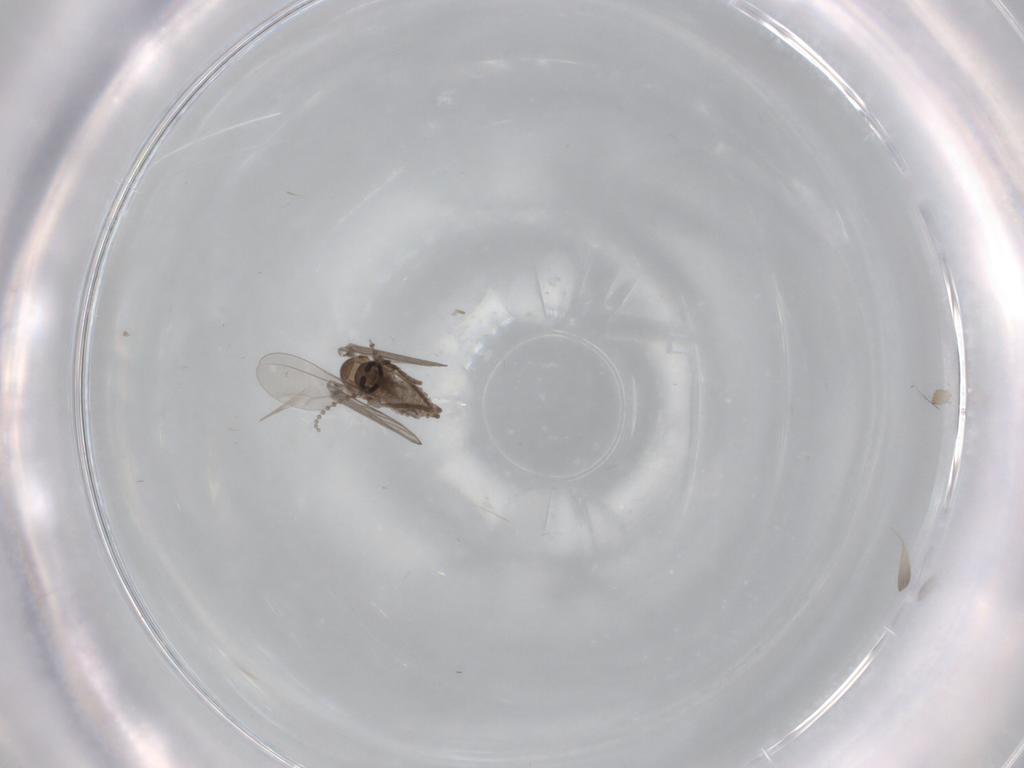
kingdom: Animalia
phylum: Arthropoda
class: Insecta
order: Diptera
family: Psychodidae
